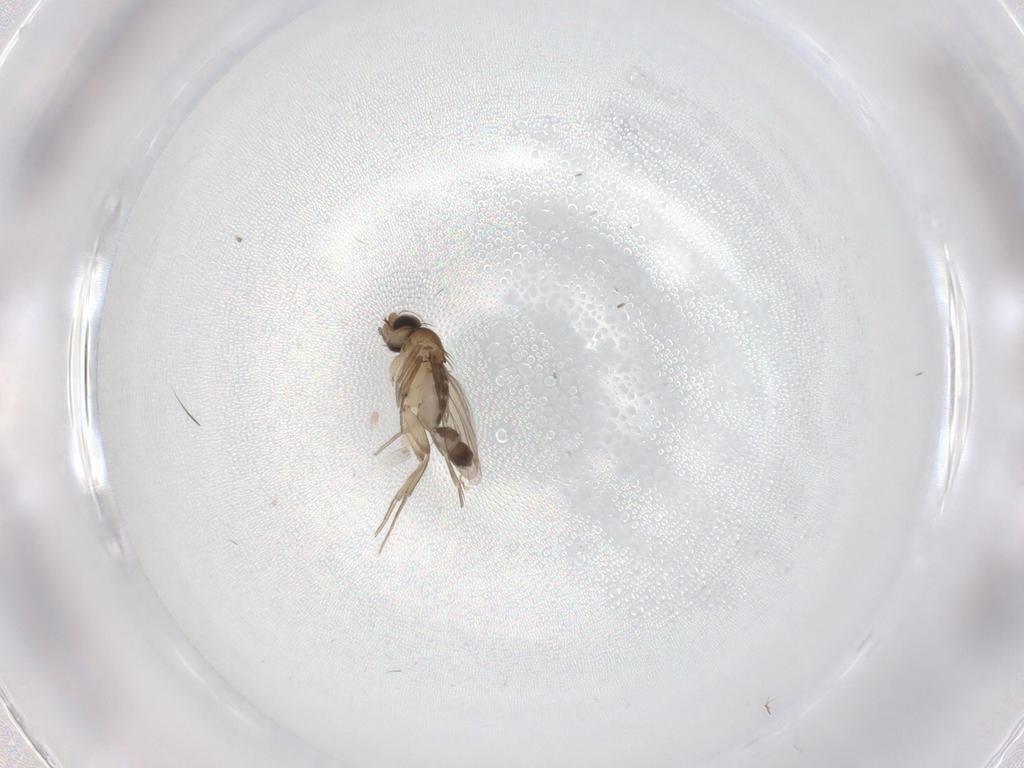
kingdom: Animalia
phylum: Arthropoda
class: Insecta
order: Diptera
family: Phoridae
